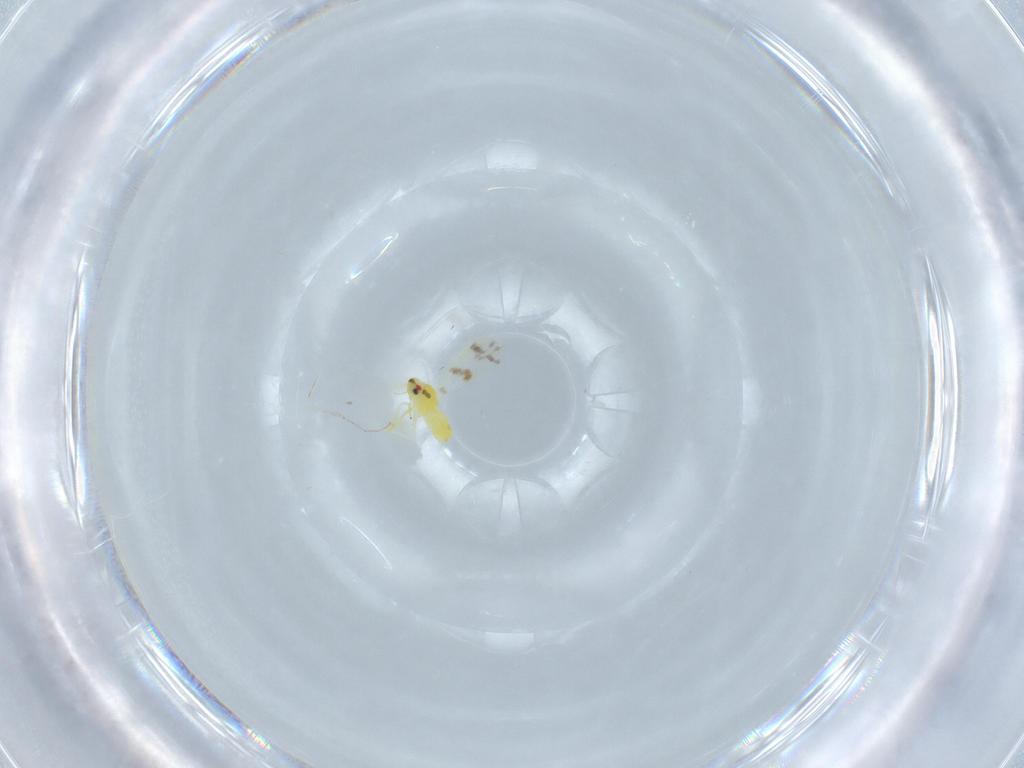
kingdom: Animalia
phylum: Arthropoda
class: Insecta
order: Hemiptera
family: Aleyrodidae
